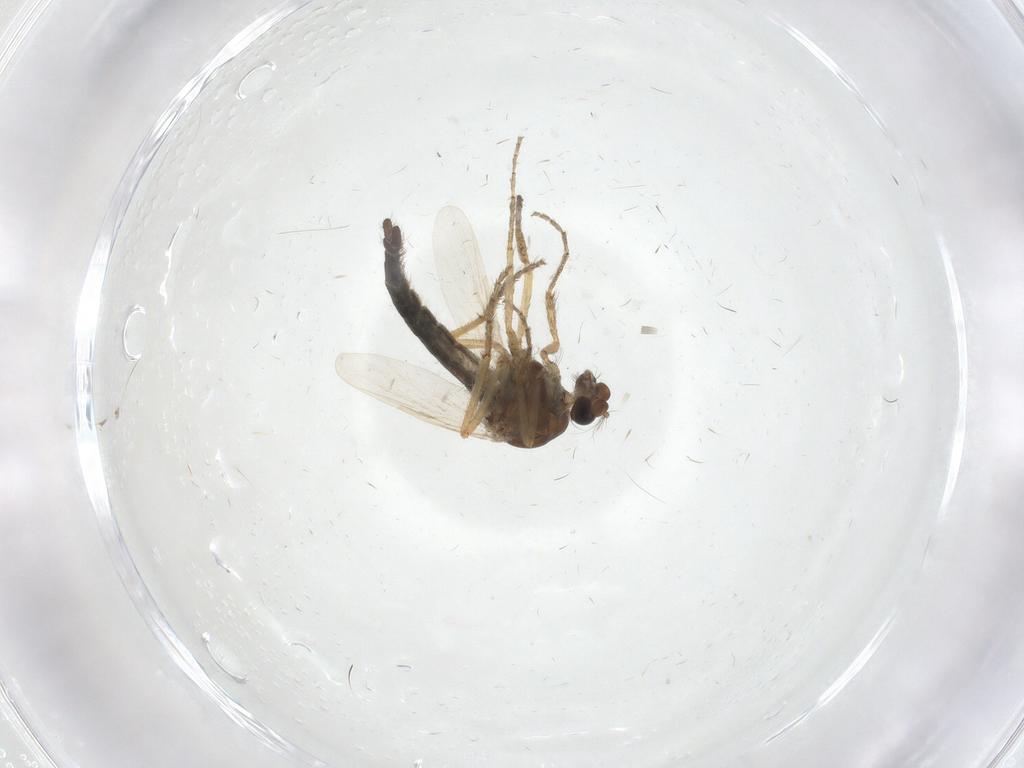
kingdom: Animalia
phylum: Arthropoda
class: Insecta
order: Diptera
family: Ceratopogonidae
